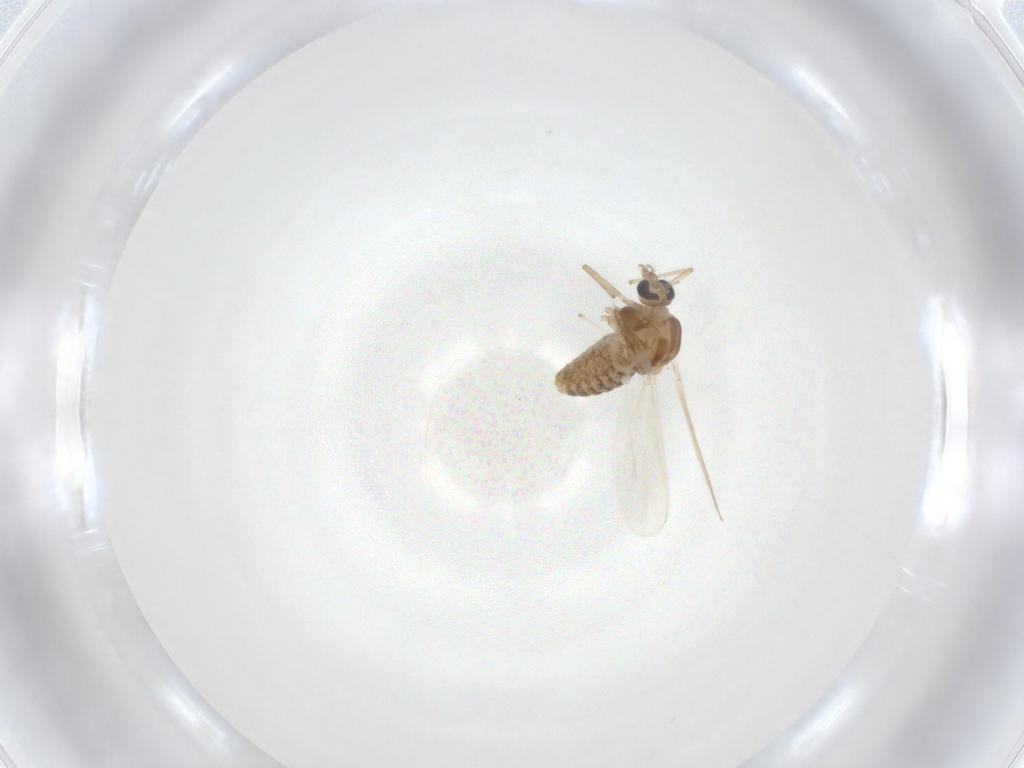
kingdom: Animalia
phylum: Arthropoda
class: Insecta
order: Diptera
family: Chironomidae
